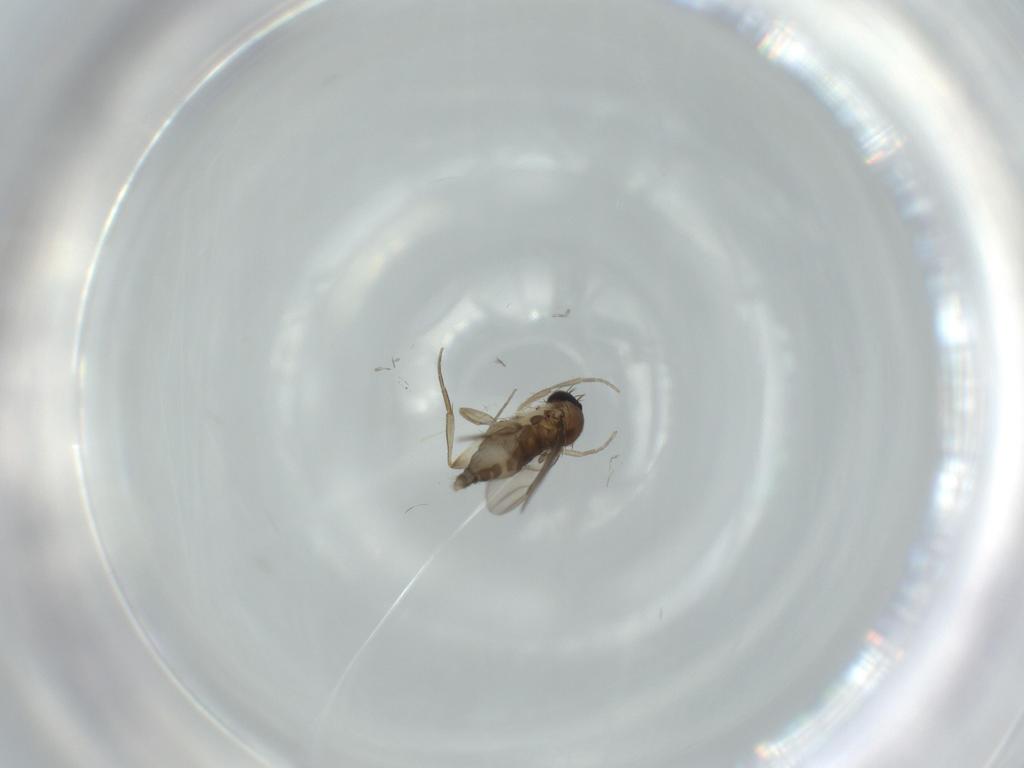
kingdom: Animalia
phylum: Arthropoda
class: Insecta
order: Diptera
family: Phoridae
